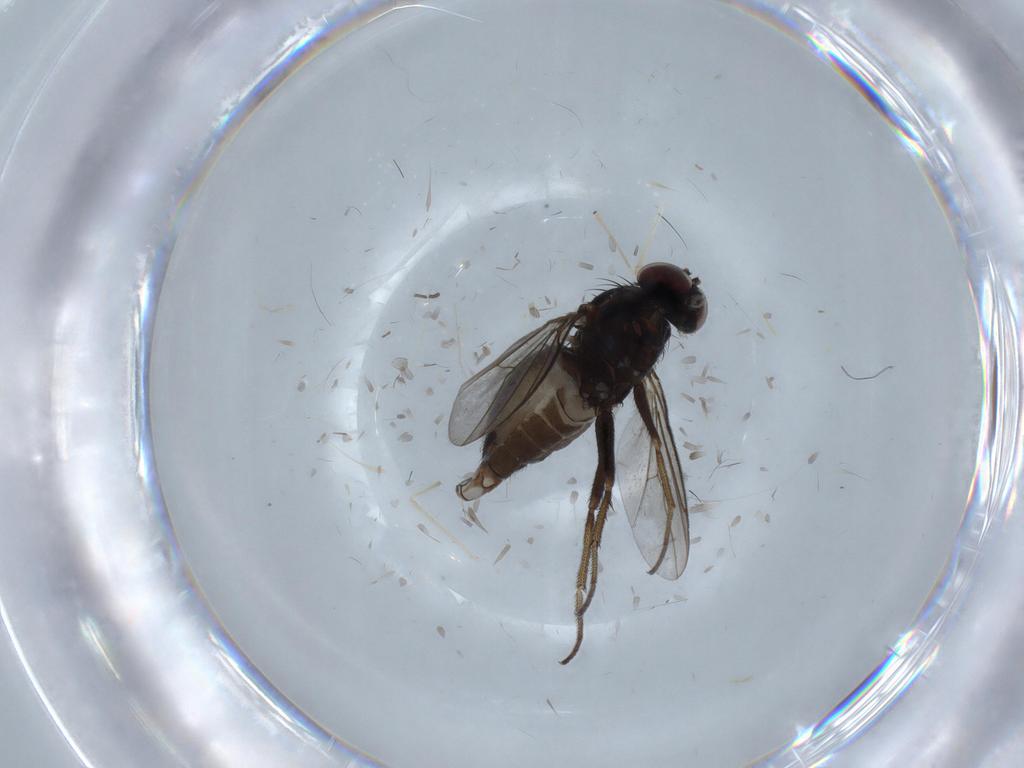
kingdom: Animalia
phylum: Arthropoda
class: Insecta
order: Diptera
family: Dolichopodidae
